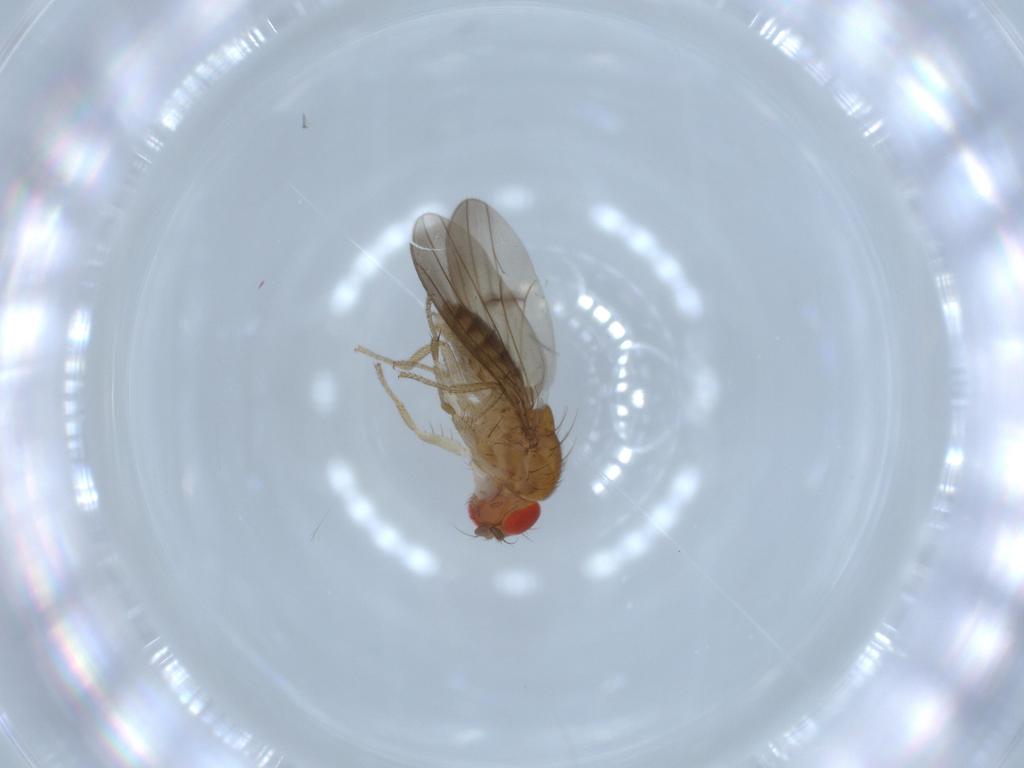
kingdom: Animalia
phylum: Arthropoda
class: Insecta
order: Diptera
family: Drosophilidae
